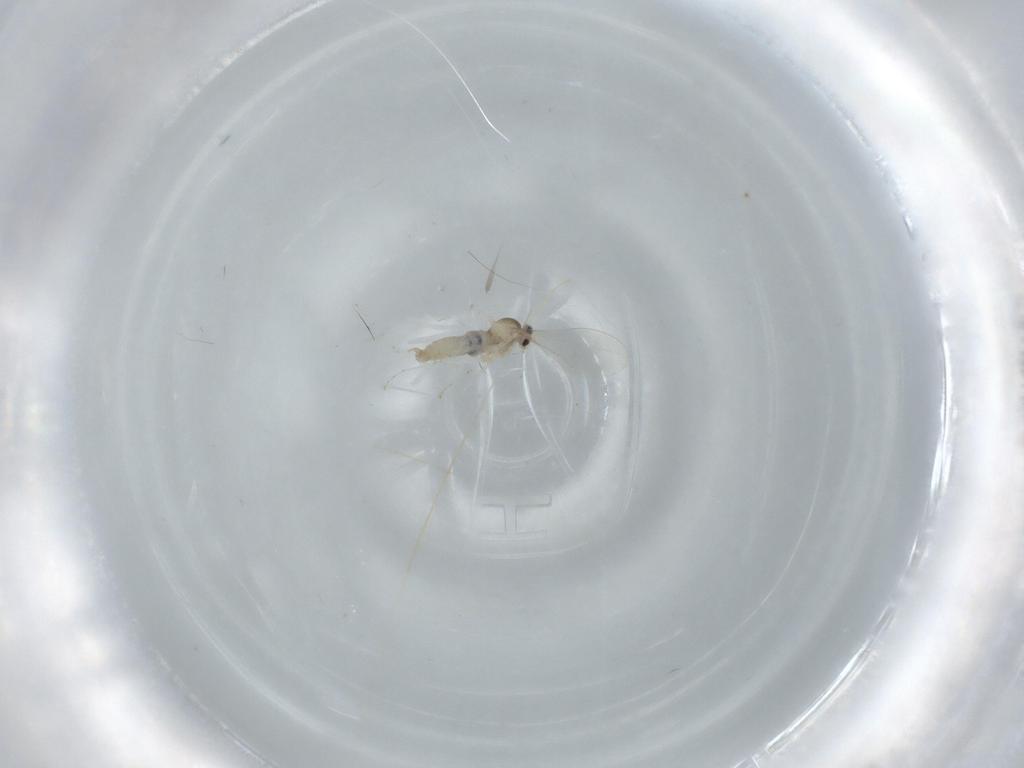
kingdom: Animalia
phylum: Arthropoda
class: Insecta
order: Diptera
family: Cecidomyiidae
